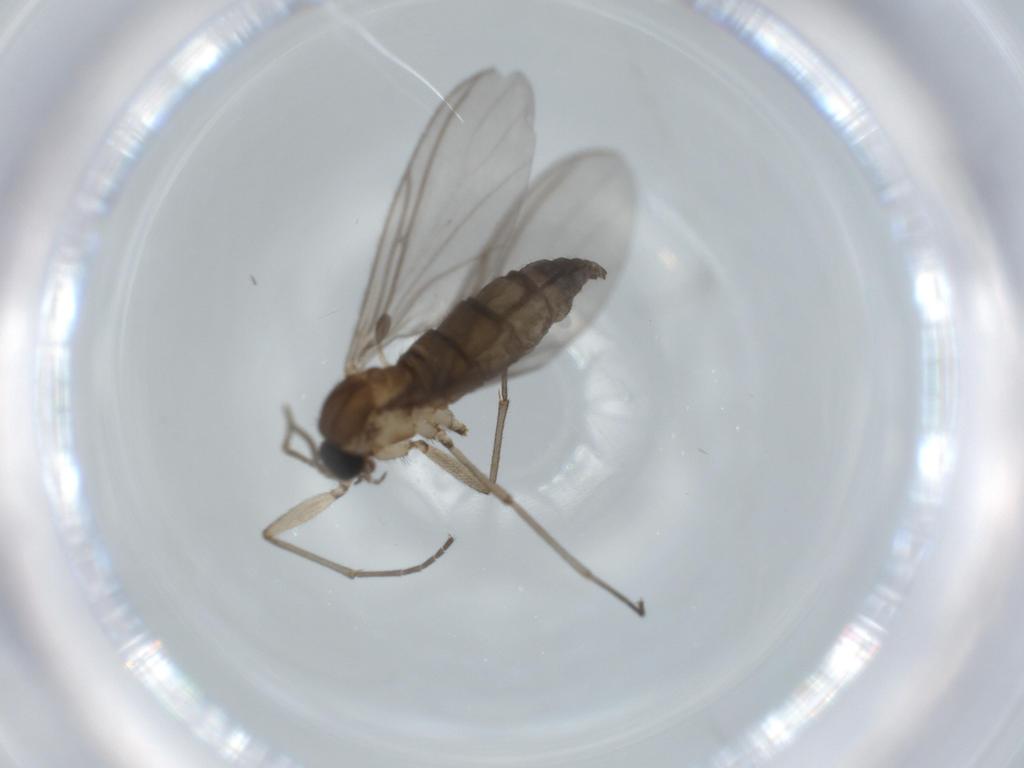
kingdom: Animalia
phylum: Arthropoda
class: Insecta
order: Diptera
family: Sciaridae
